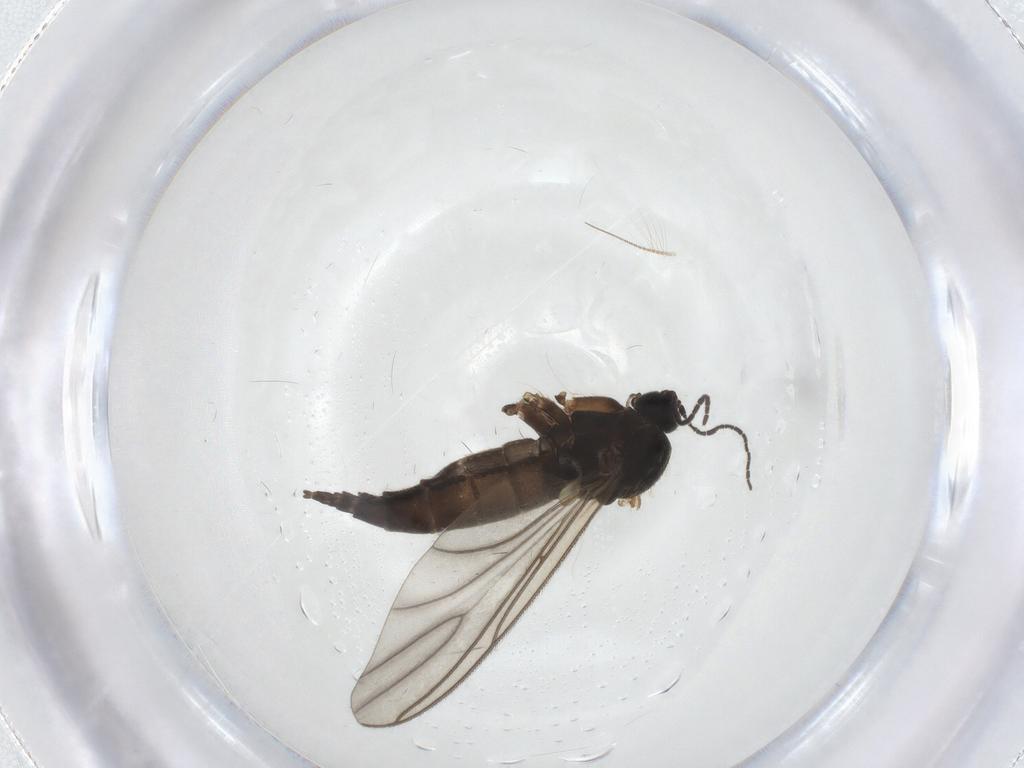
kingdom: Animalia
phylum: Arthropoda
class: Insecta
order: Diptera
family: Sciaridae
